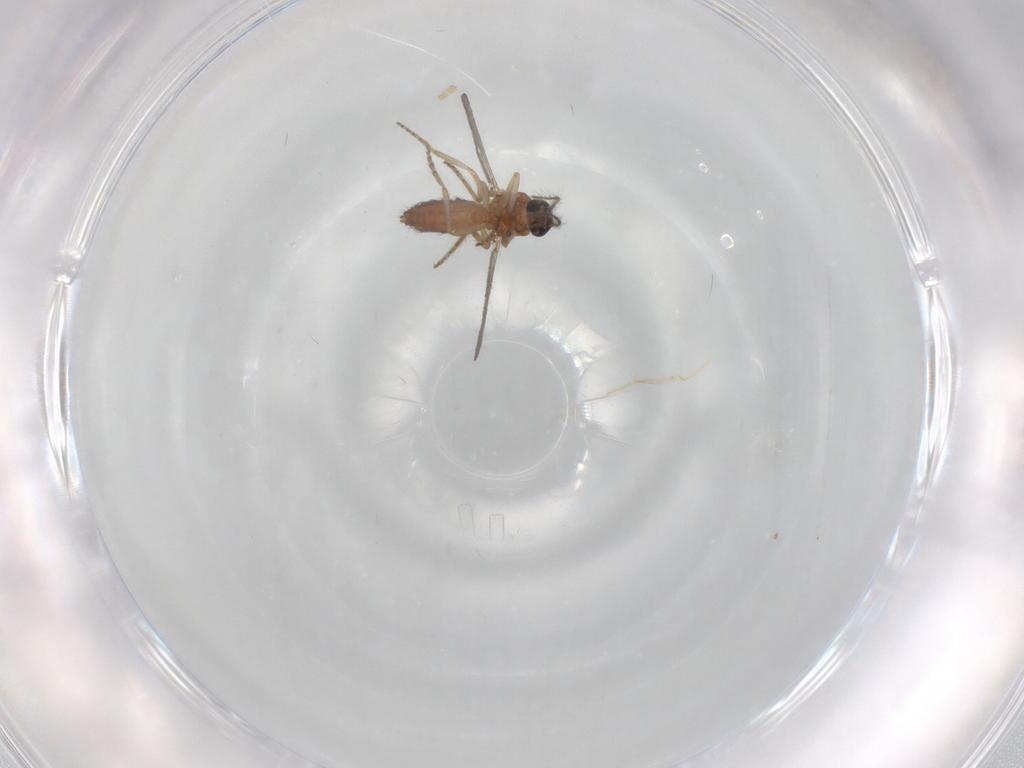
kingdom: Animalia
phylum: Arthropoda
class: Insecta
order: Diptera
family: Ceratopogonidae
